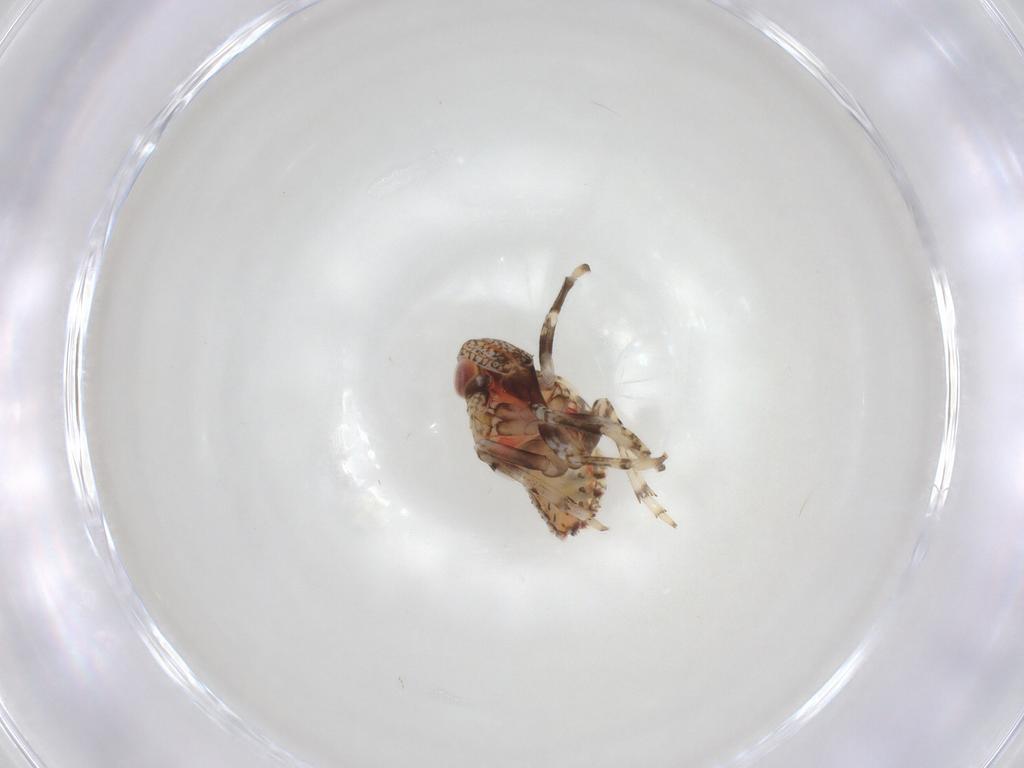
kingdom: Animalia
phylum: Arthropoda
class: Insecta
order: Hemiptera
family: Issidae
